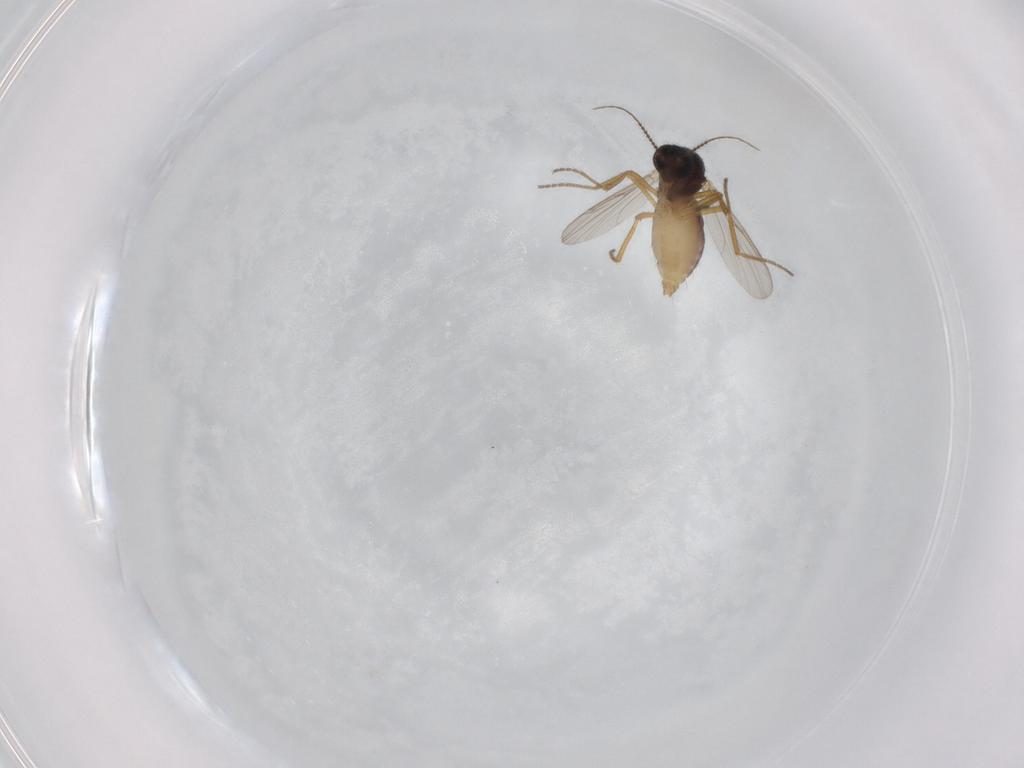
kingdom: Animalia
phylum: Arthropoda
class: Insecta
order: Diptera
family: Ceratopogonidae
